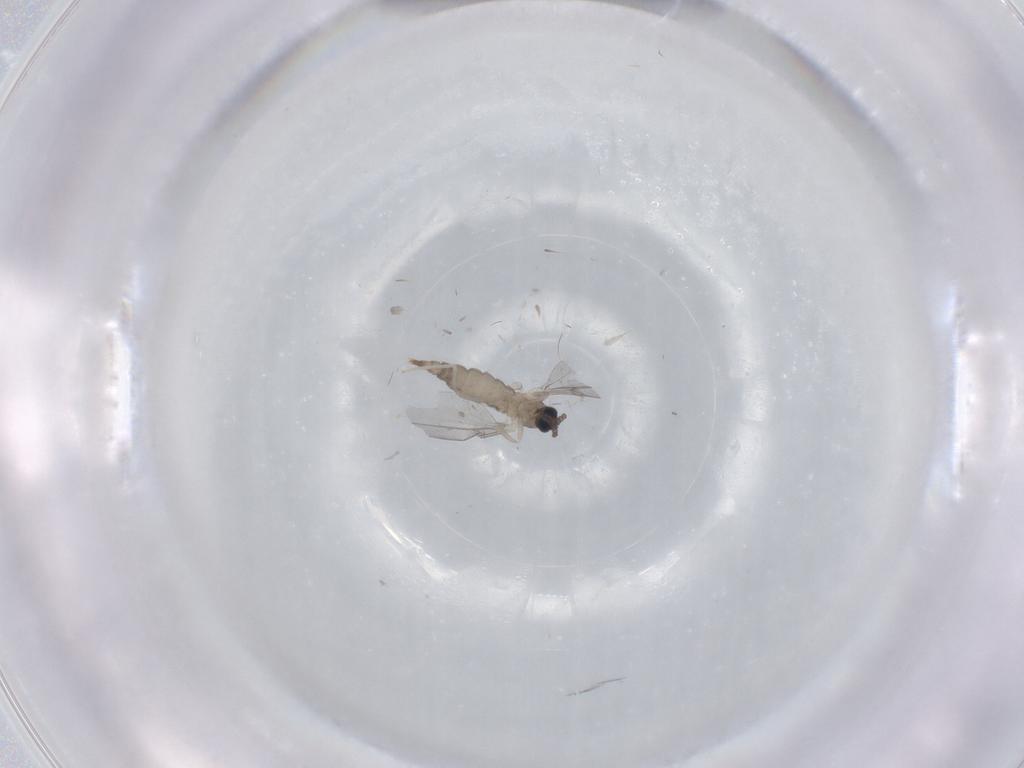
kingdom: Animalia
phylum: Arthropoda
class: Insecta
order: Diptera
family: Cecidomyiidae
